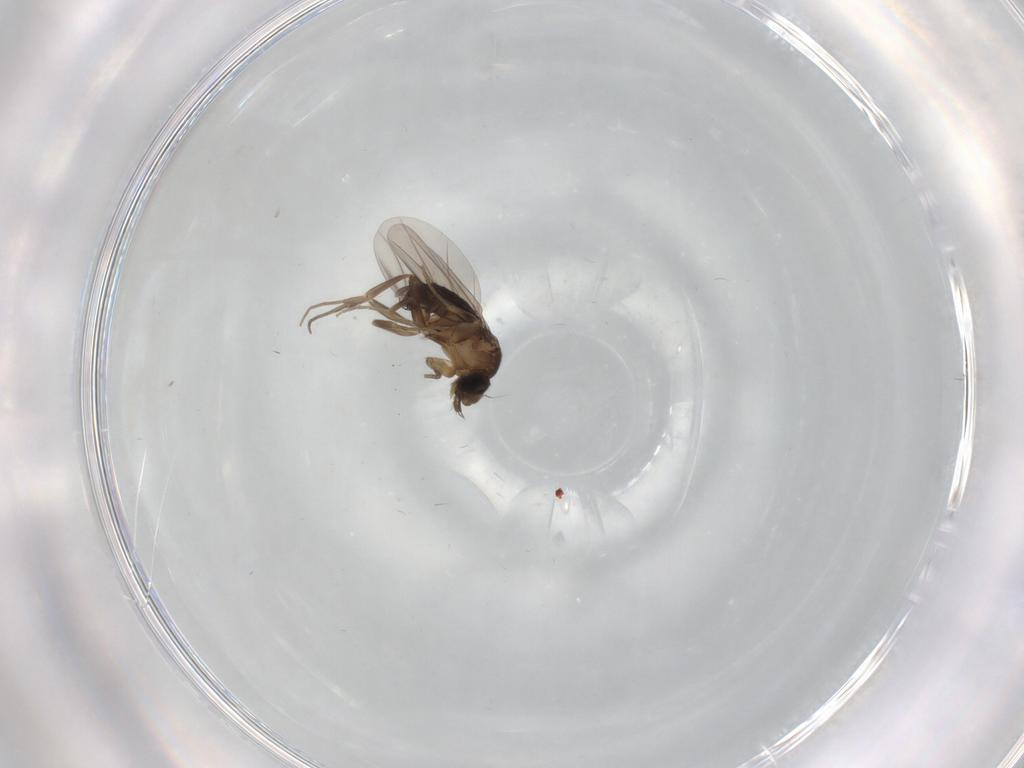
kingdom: Animalia
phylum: Arthropoda
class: Insecta
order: Diptera
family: Phoridae
